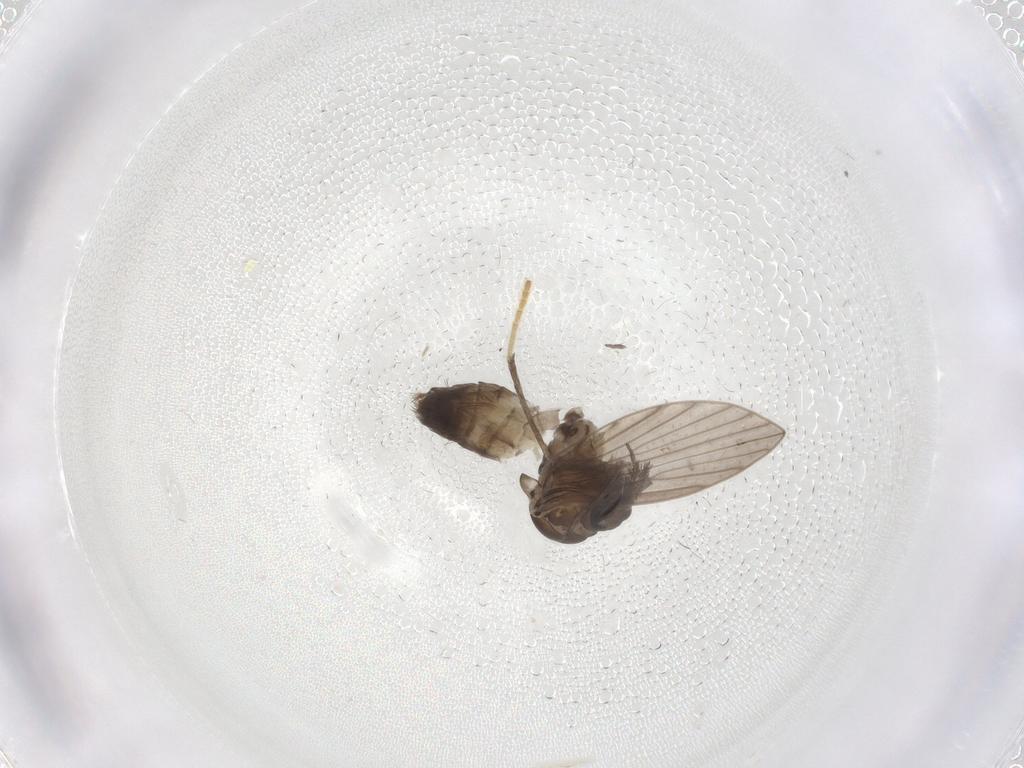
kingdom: Animalia
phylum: Arthropoda
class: Insecta
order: Diptera
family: Psychodidae
